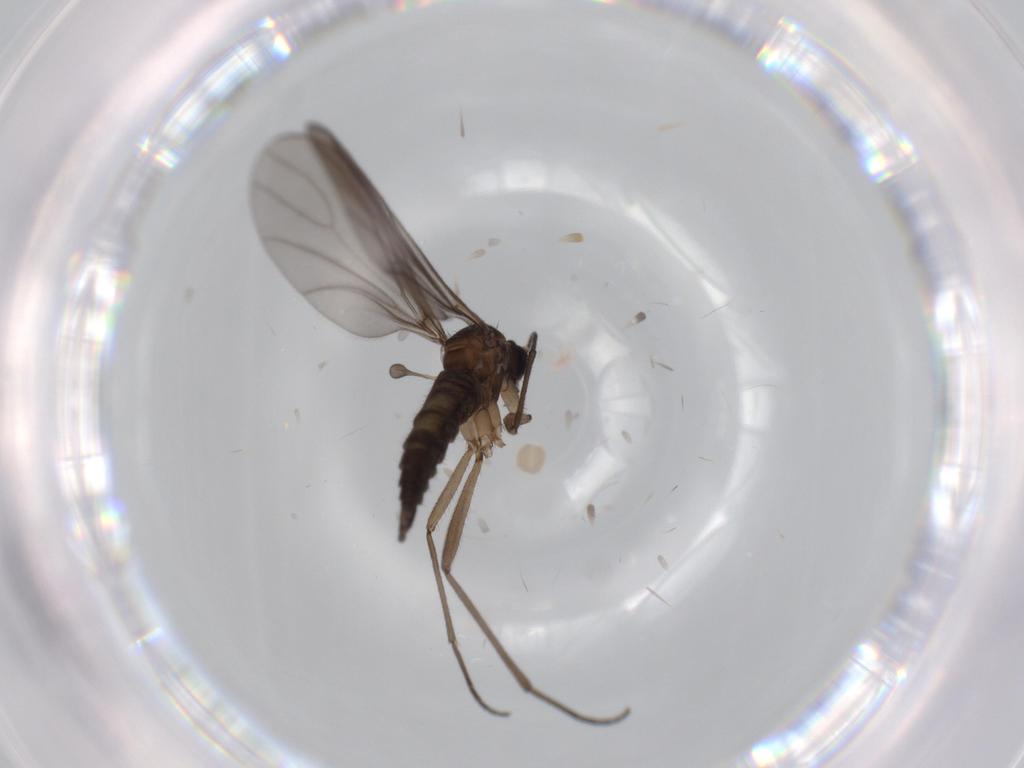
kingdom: Animalia
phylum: Arthropoda
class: Insecta
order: Diptera
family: Sciaridae
